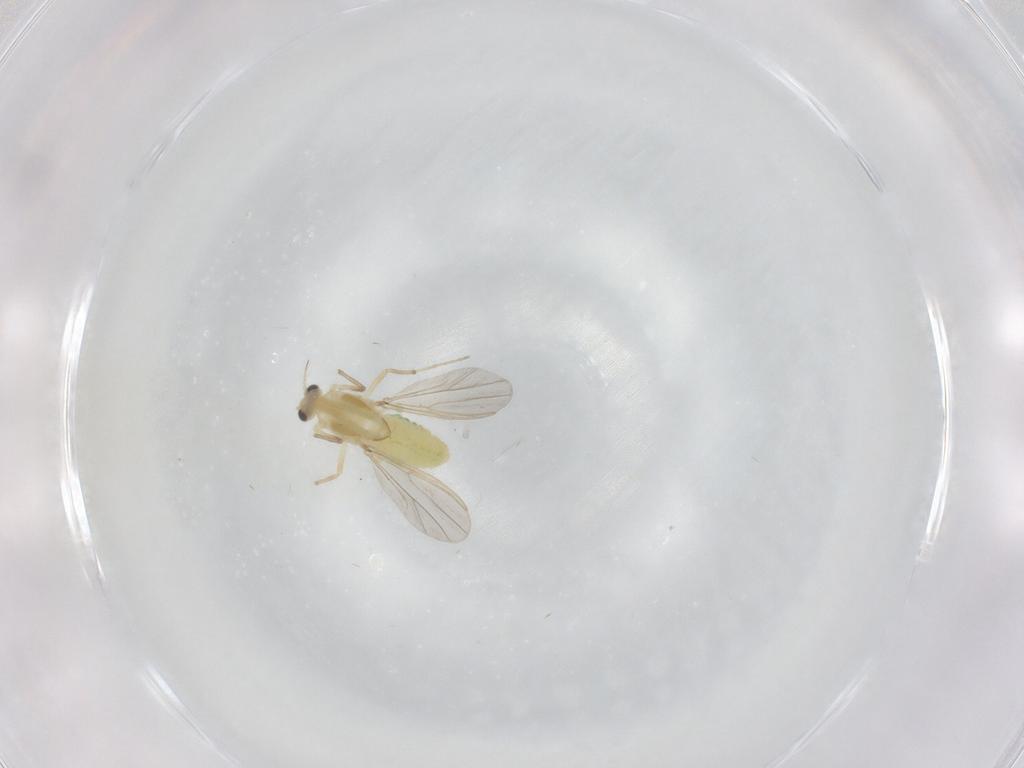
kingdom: Animalia
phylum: Arthropoda
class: Insecta
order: Diptera
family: Chironomidae
